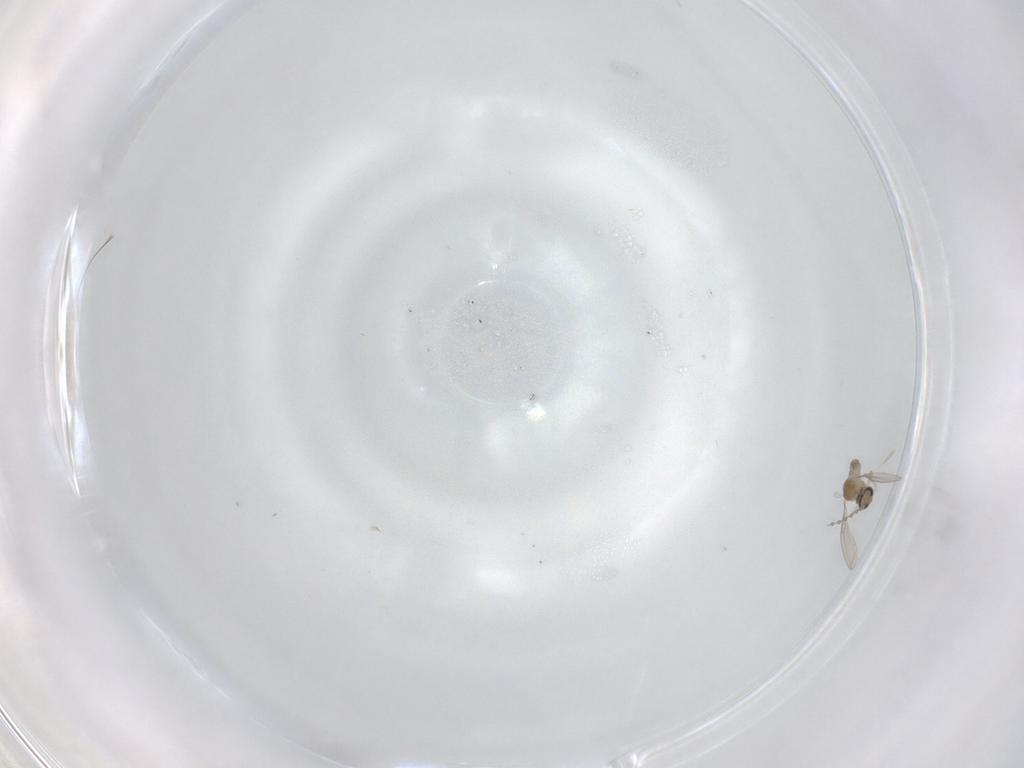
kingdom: Animalia
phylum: Arthropoda
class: Insecta
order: Diptera
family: Cecidomyiidae
